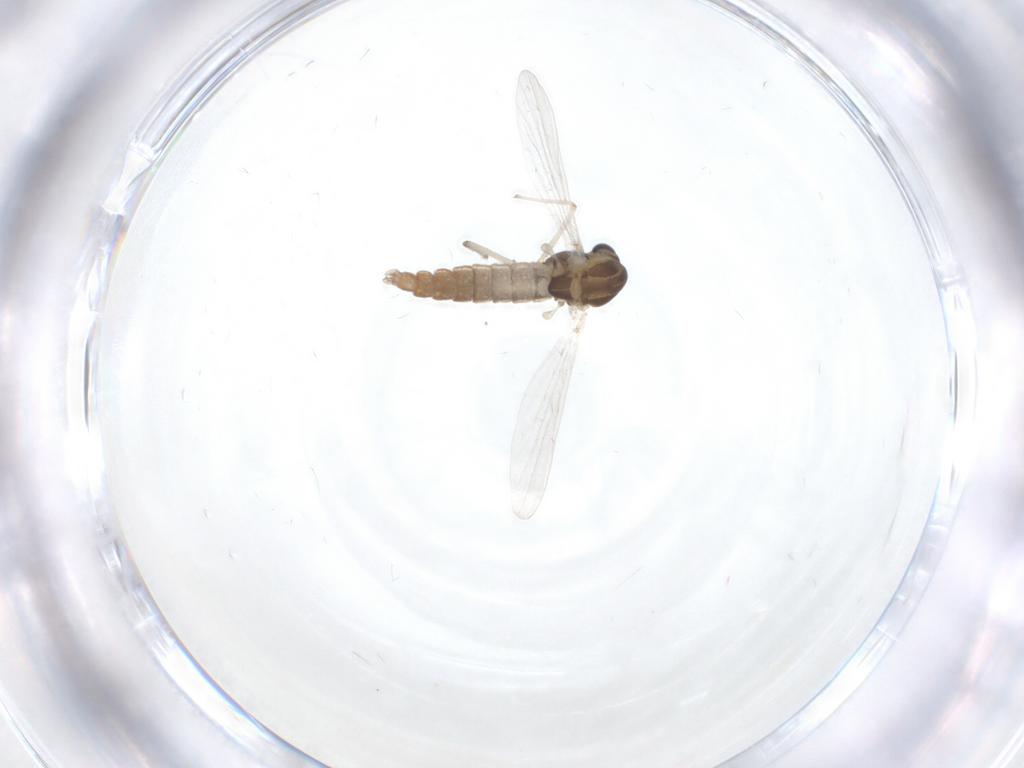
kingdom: Animalia
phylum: Arthropoda
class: Insecta
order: Diptera
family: Chironomidae
